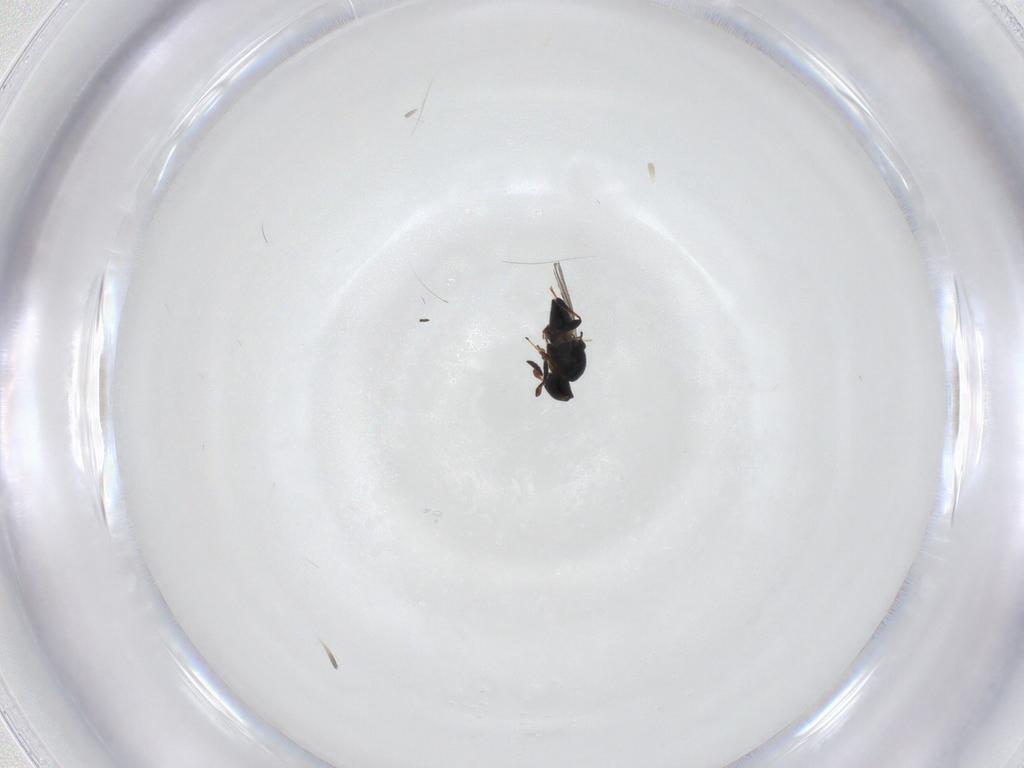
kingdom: Animalia
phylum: Arthropoda
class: Insecta
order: Hymenoptera
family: Platygastridae
